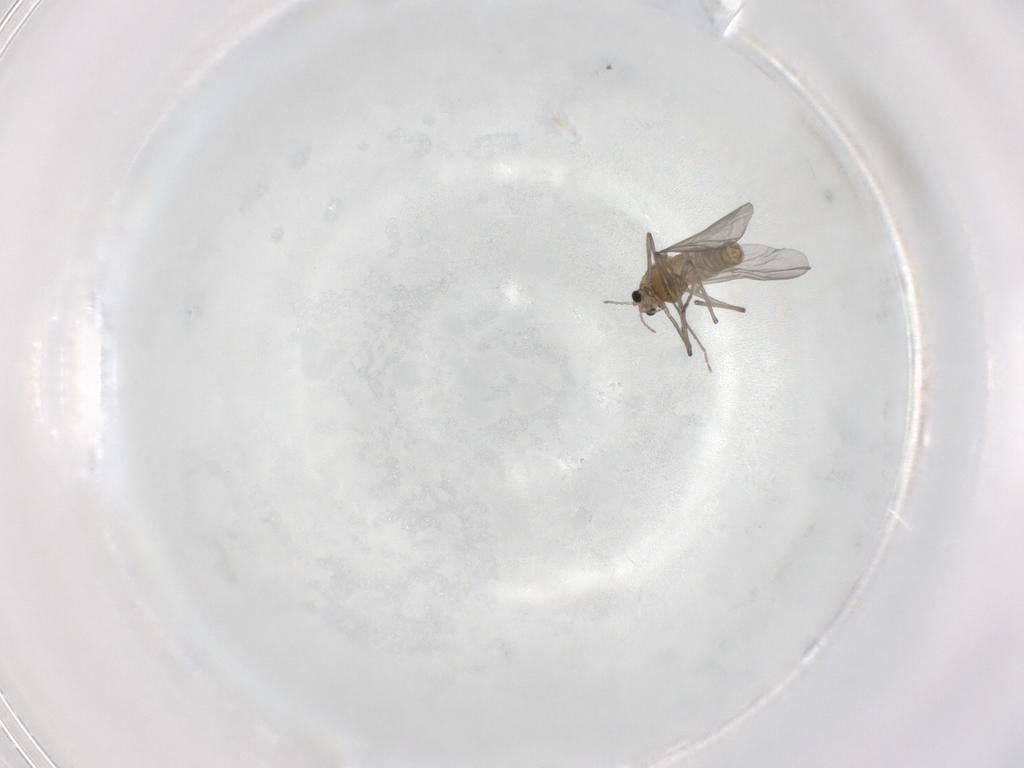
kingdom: Animalia
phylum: Arthropoda
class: Insecta
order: Diptera
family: Chironomidae
